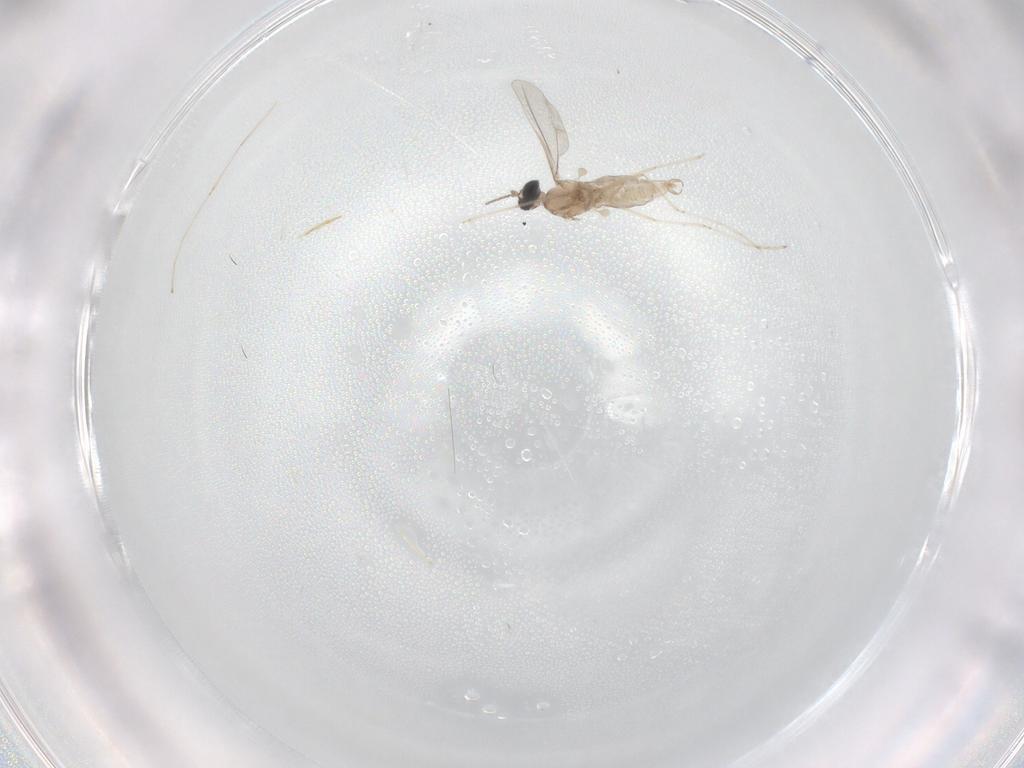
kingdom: Animalia
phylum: Arthropoda
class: Insecta
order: Diptera
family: Cecidomyiidae
